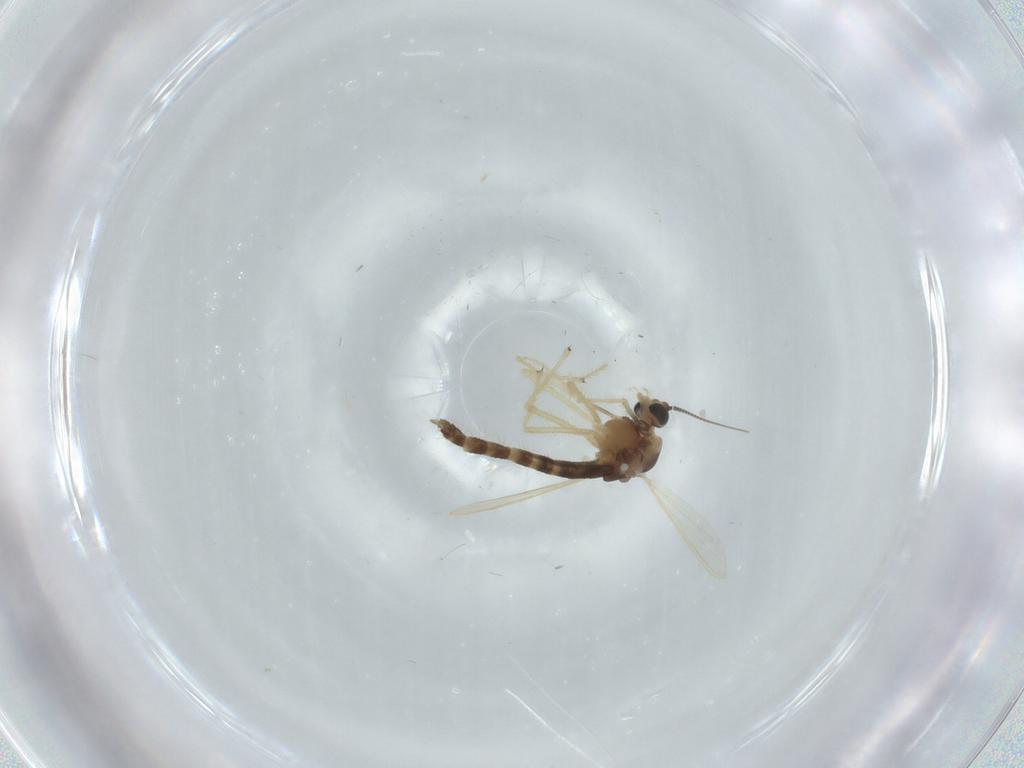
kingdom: Animalia
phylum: Arthropoda
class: Insecta
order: Diptera
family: Chironomidae
